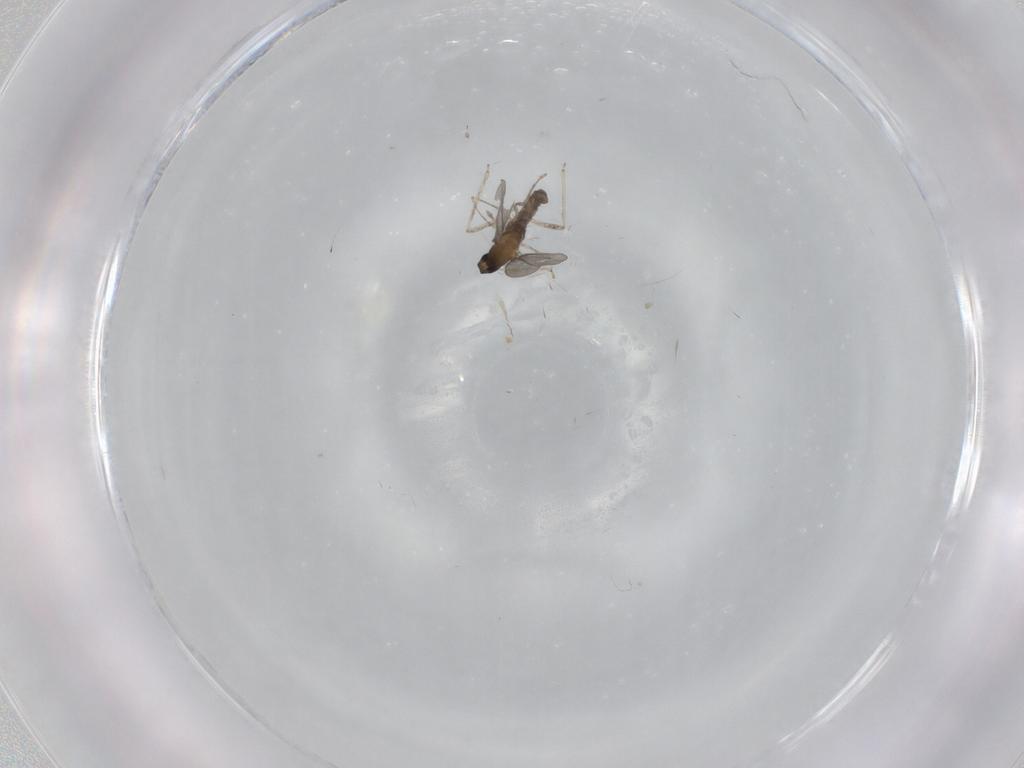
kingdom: Animalia
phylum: Arthropoda
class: Insecta
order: Diptera
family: Cecidomyiidae
